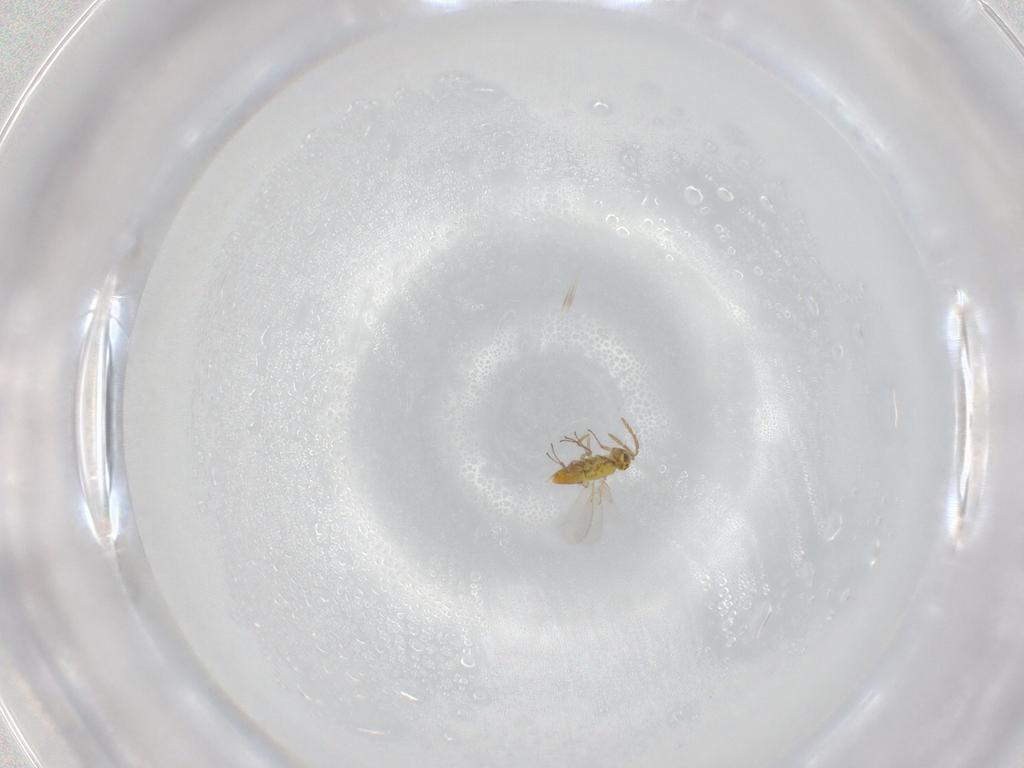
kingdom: Animalia
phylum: Arthropoda
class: Insecta
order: Hymenoptera
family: Aphelinidae
